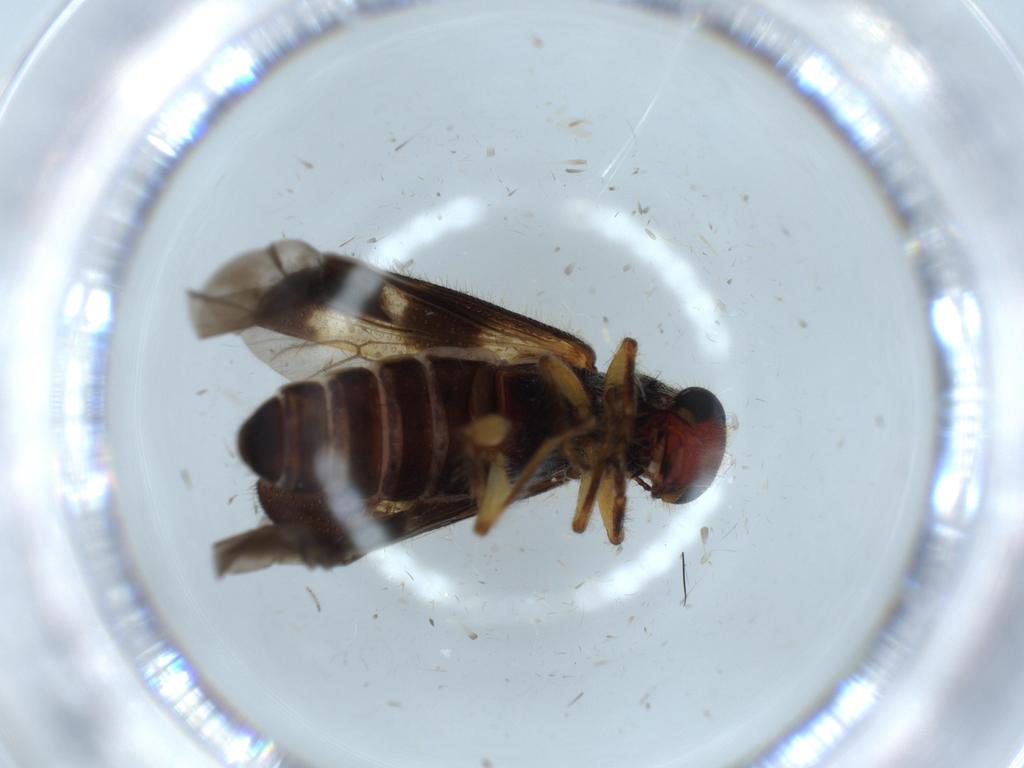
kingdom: Animalia
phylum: Arthropoda
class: Insecta
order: Coleoptera
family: Cleridae
